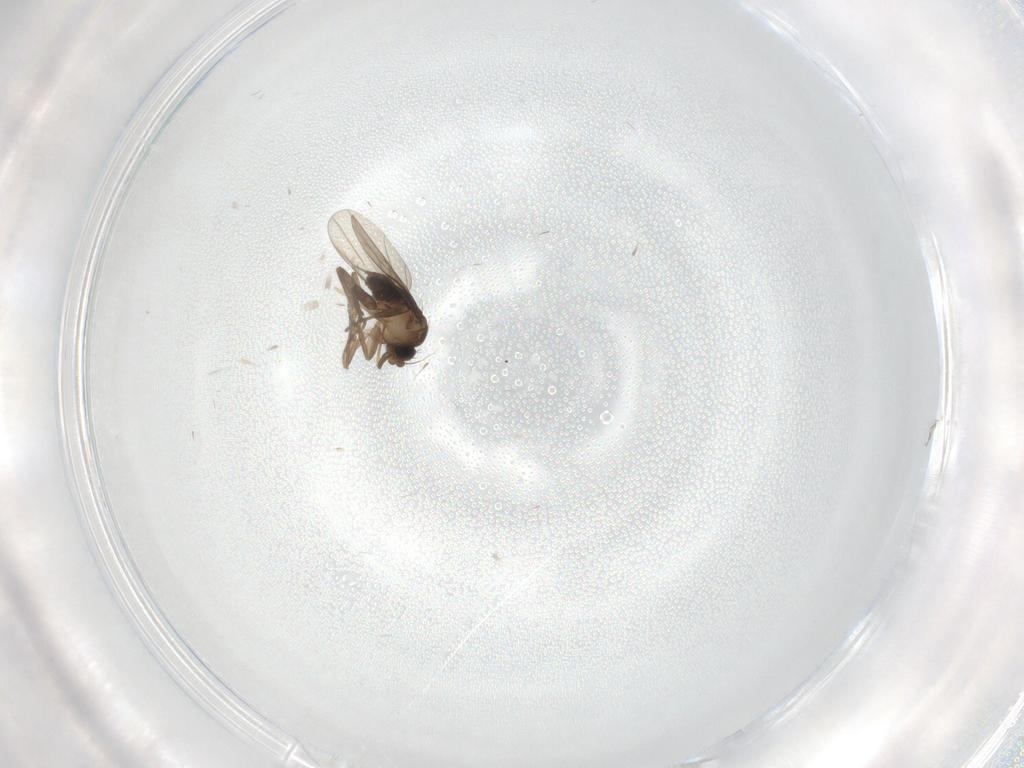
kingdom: Animalia
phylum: Arthropoda
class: Insecta
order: Diptera
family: Cecidomyiidae
